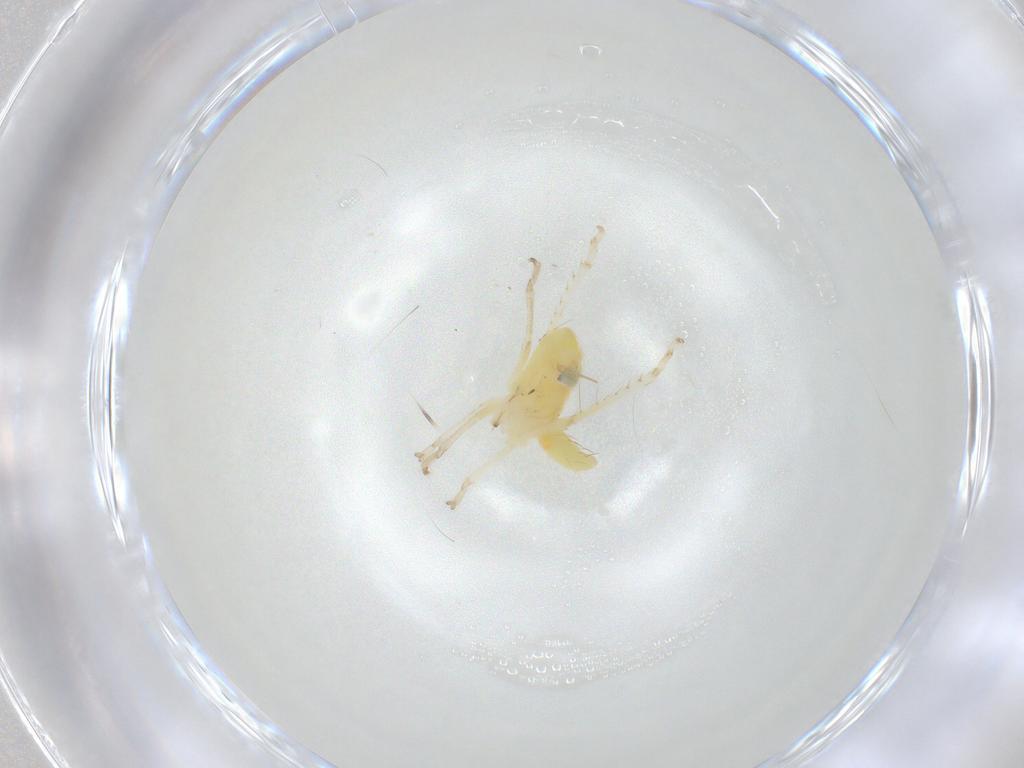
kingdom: Animalia
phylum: Arthropoda
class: Insecta
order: Hemiptera
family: Cicadellidae
